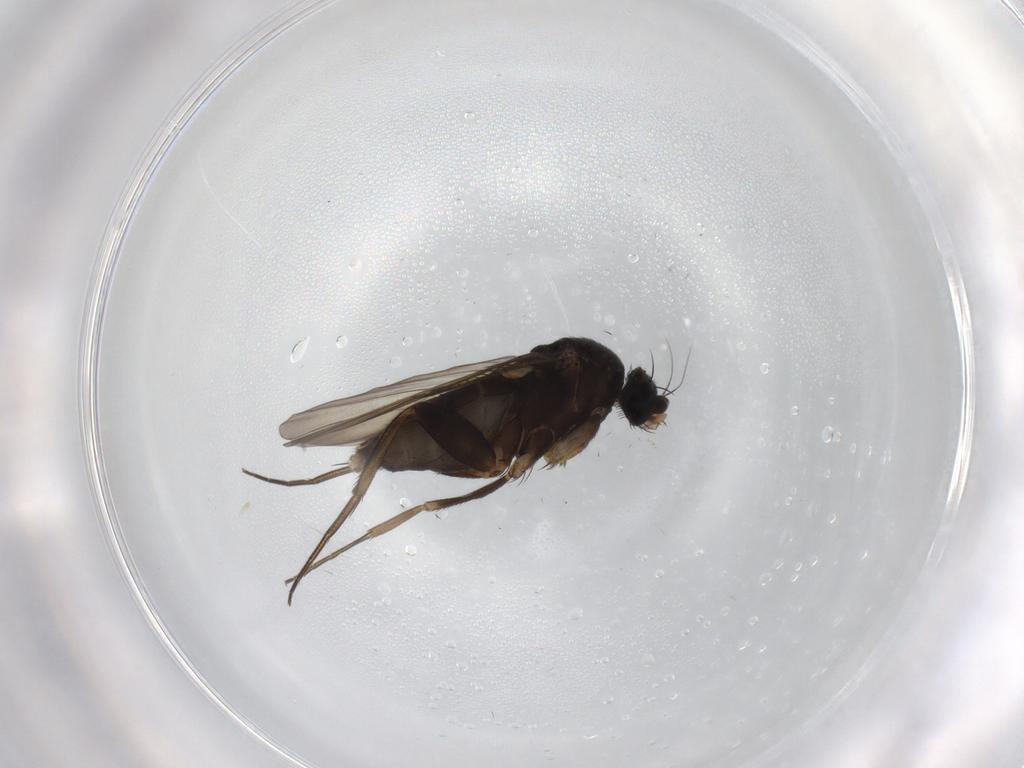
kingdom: Animalia
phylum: Arthropoda
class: Insecta
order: Diptera
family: Phoridae
